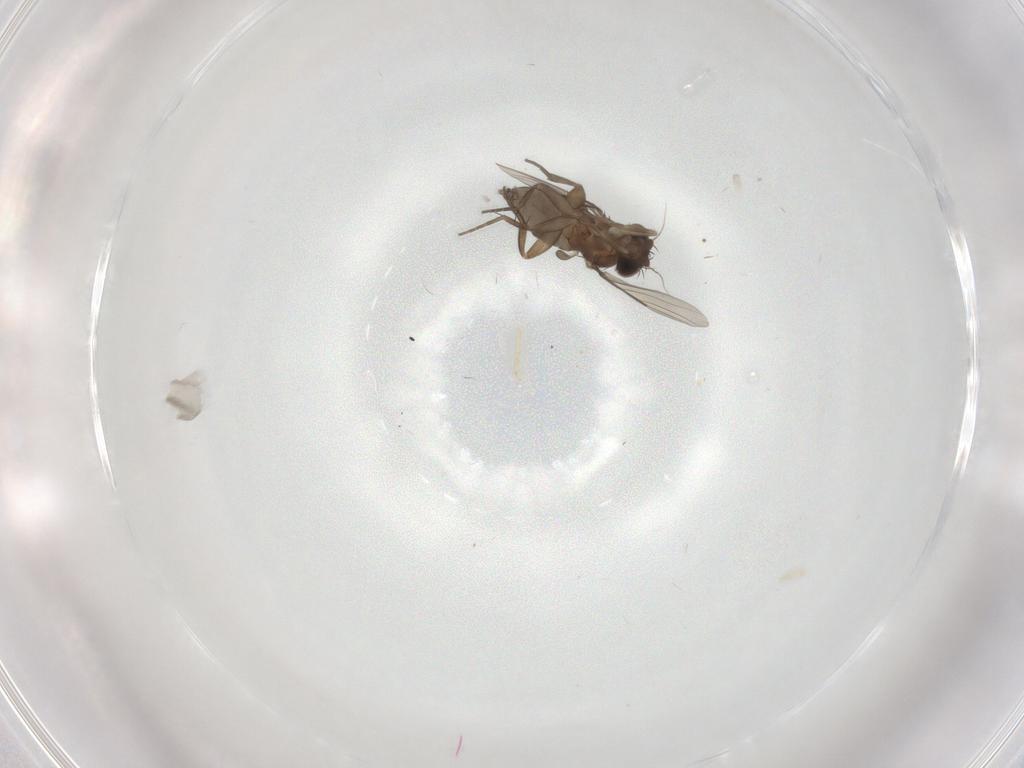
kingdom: Animalia
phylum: Arthropoda
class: Insecta
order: Diptera
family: Phoridae
